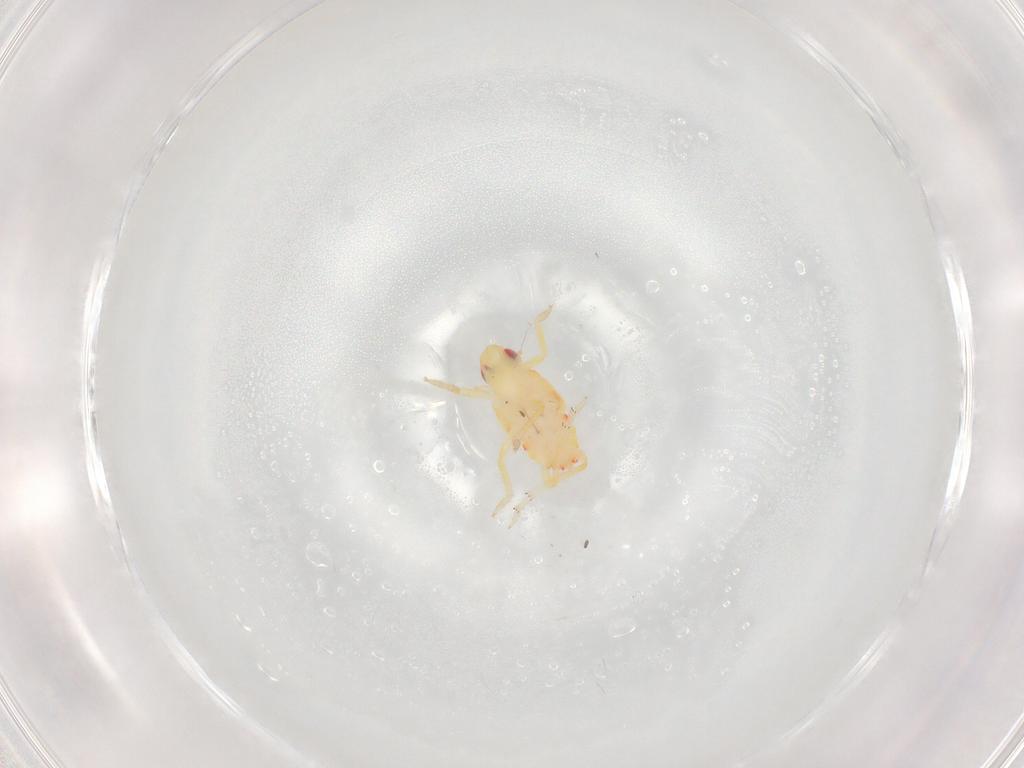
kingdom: Animalia
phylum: Arthropoda
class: Insecta
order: Hemiptera
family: Tropiduchidae
